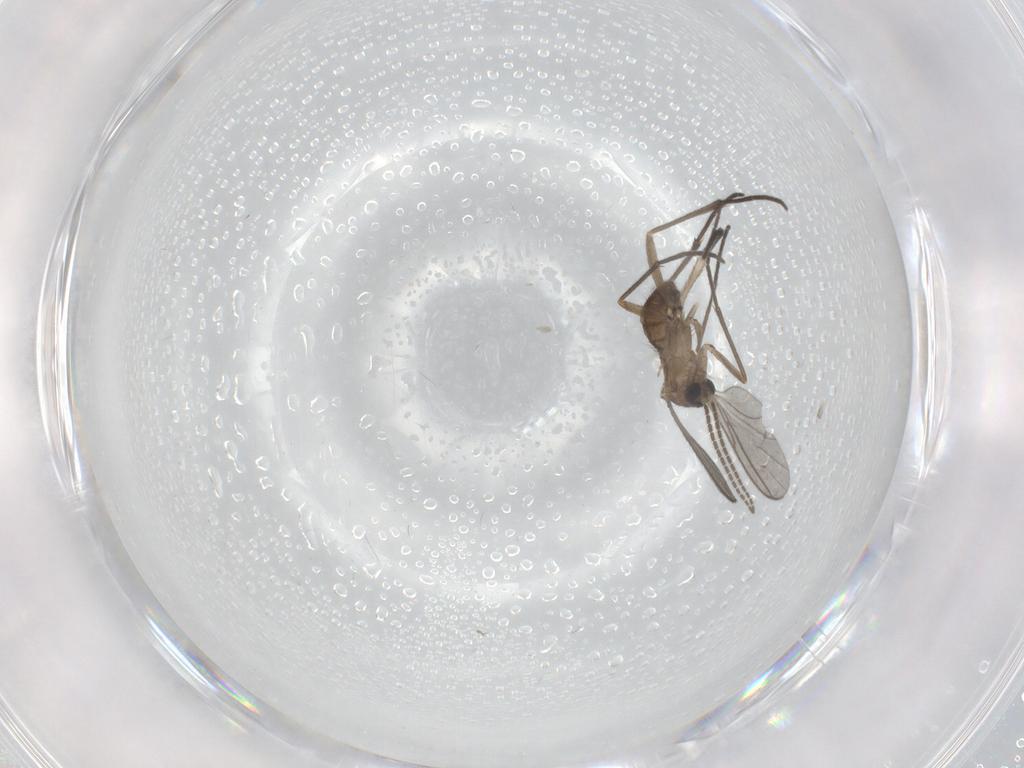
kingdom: Animalia
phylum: Arthropoda
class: Insecta
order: Diptera
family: Sciaridae
